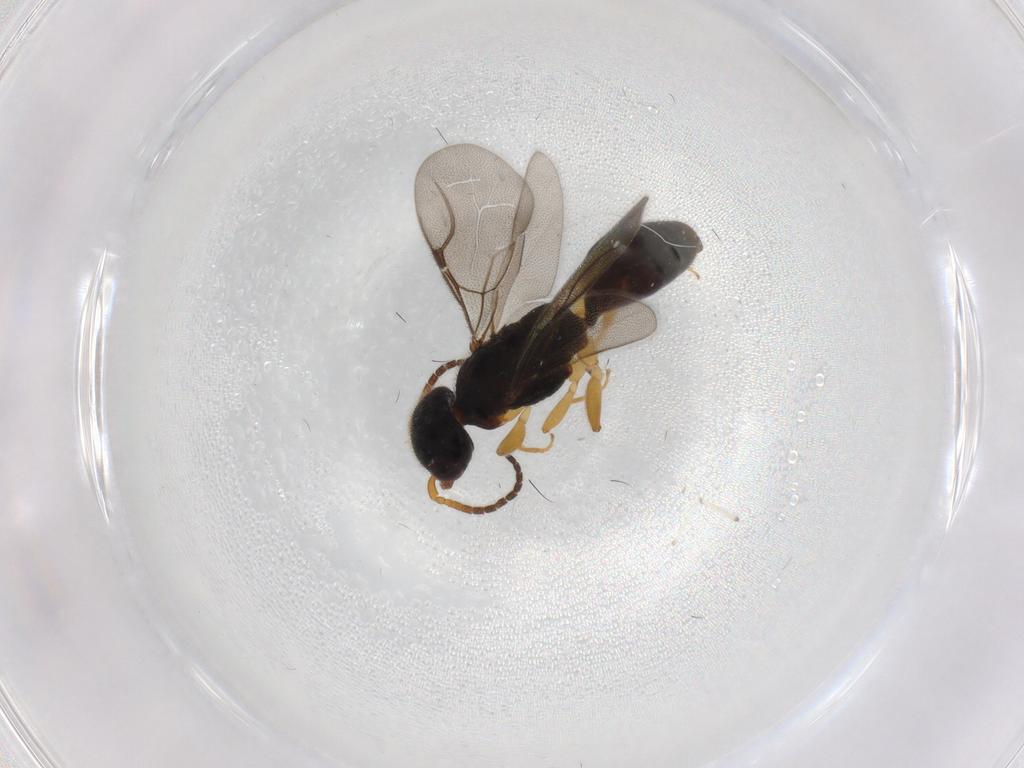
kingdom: Animalia
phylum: Arthropoda
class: Insecta
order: Hymenoptera
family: Bethylidae
